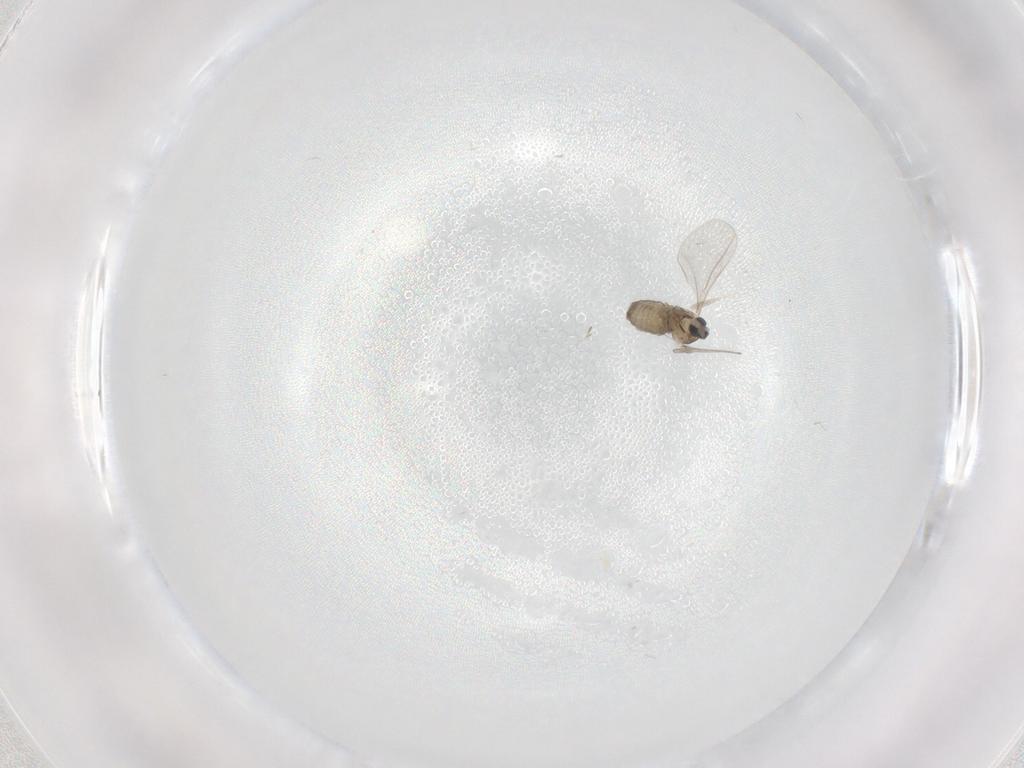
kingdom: Animalia
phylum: Arthropoda
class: Insecta
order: Diptera
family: Cecidomyiidae
